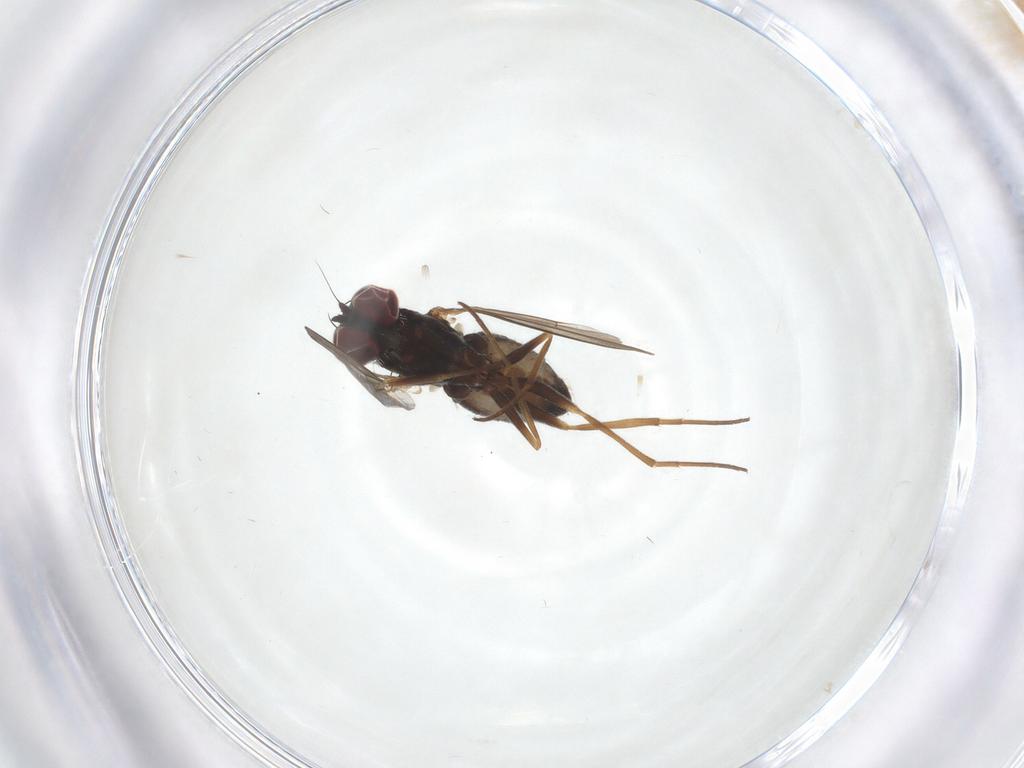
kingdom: Animalia
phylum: Arthropoda
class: Insecta
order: Diptera
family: Dolichopodidae
